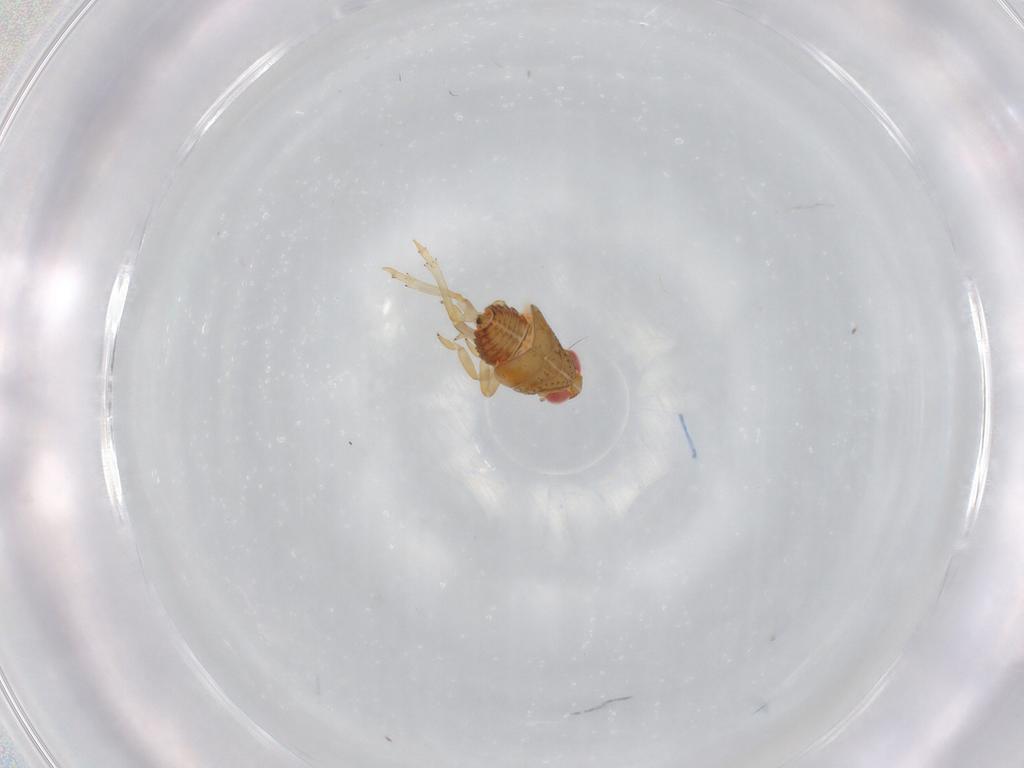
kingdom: Animalia
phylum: Arthropoda
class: Insecta
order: Hemiptera
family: Issidae
